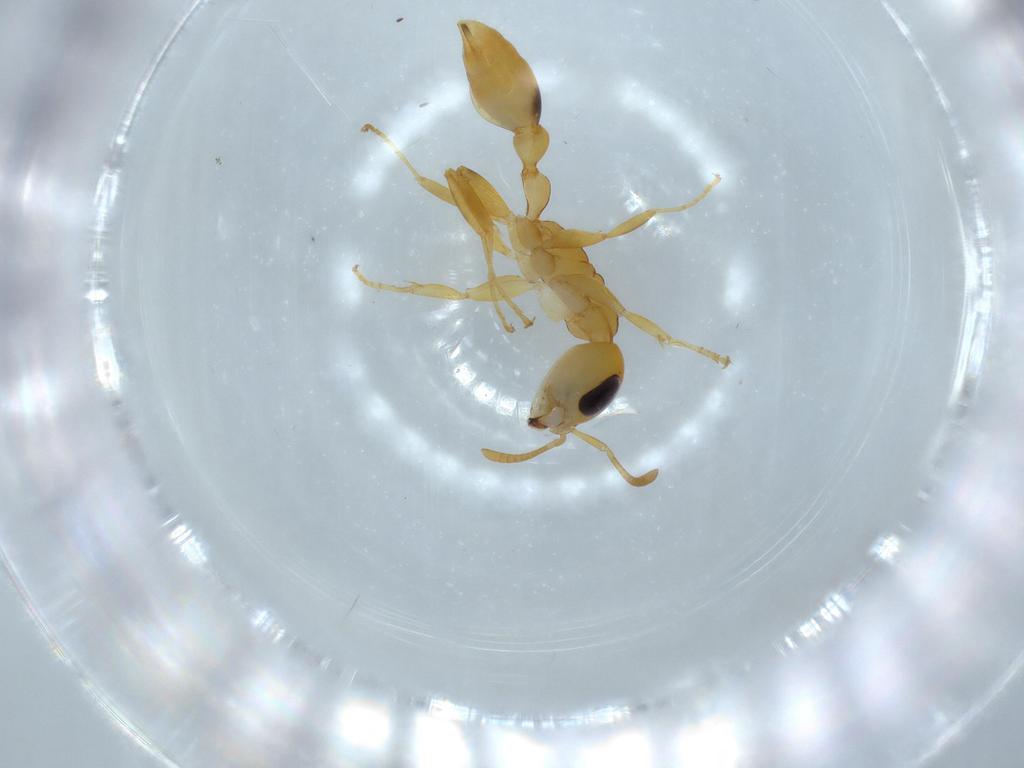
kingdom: Animalia
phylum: Arthropoda
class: Insecta
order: Hymenoptera
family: Formicidae
